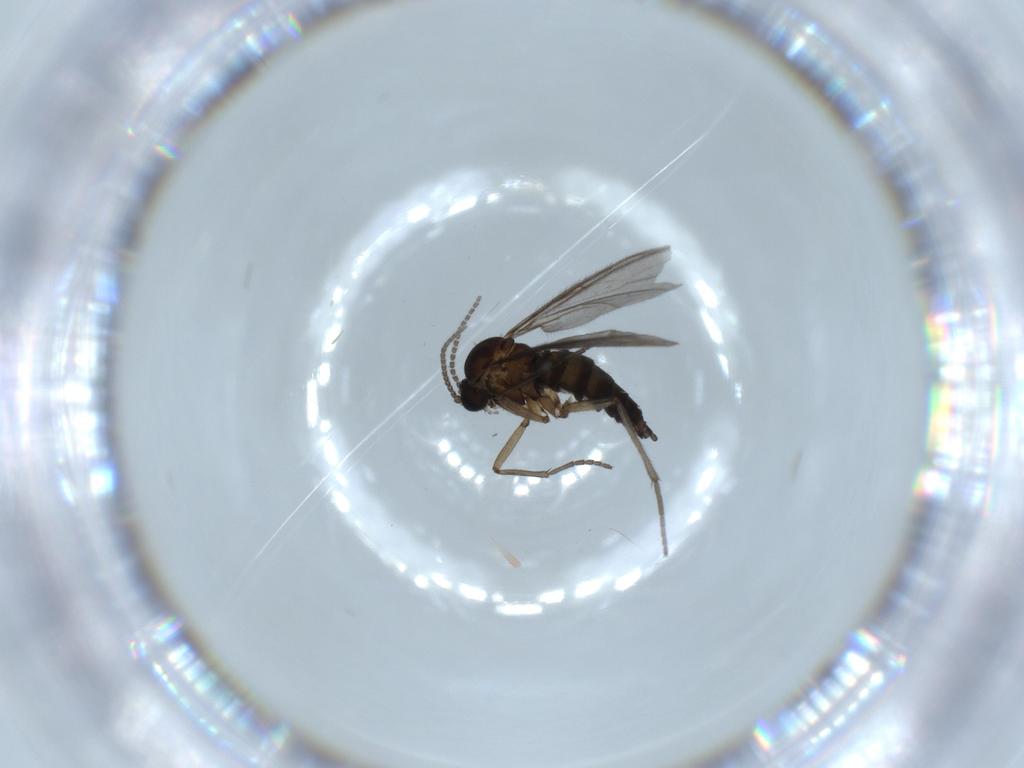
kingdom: Animalia
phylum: Arthropoda
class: Insecta
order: Diptera
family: Sciaridae
